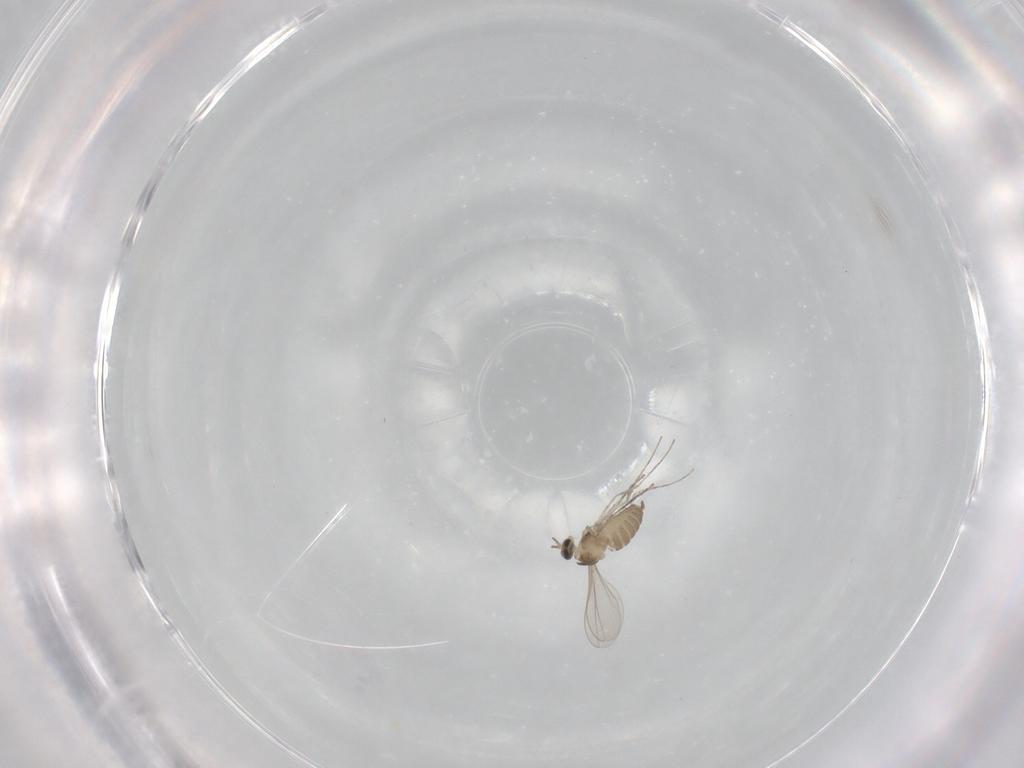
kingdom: Animalia
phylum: Arthropoda
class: Insecta
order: Diptera
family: Cecidomyiidae
